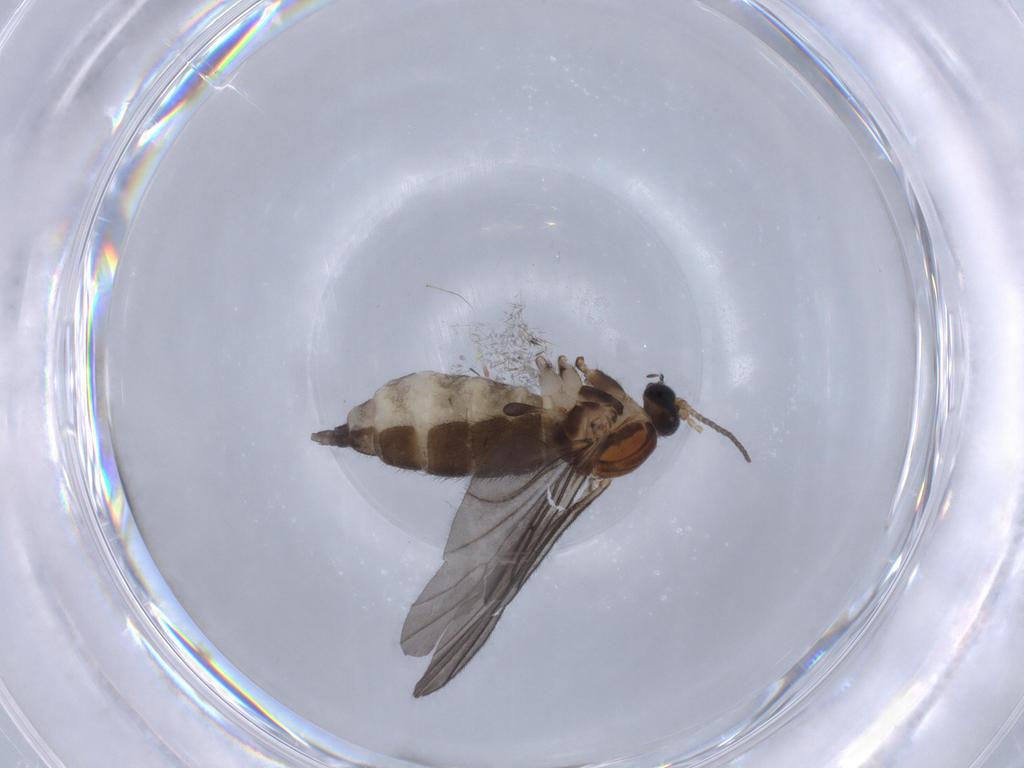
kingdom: Animalia
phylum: Arthropoda
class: Insecta
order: Diptera
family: Sciaridae
